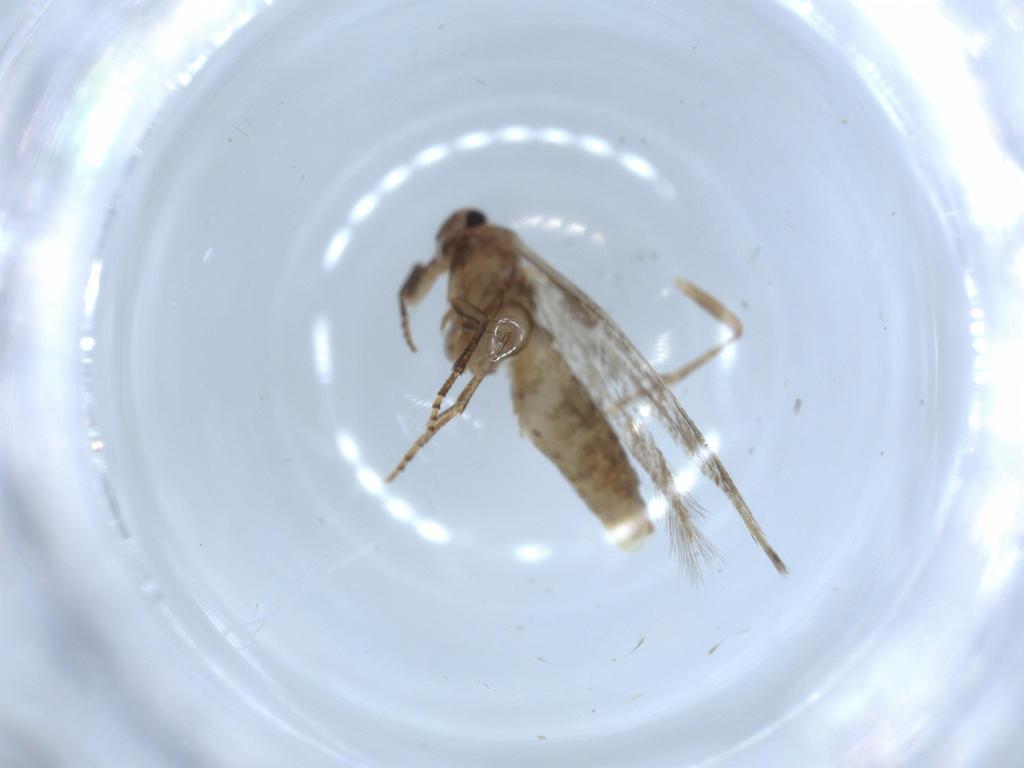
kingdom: Animalia
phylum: Arthropoda
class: Insecta
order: Lepidoptera
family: Bucculatricidae
